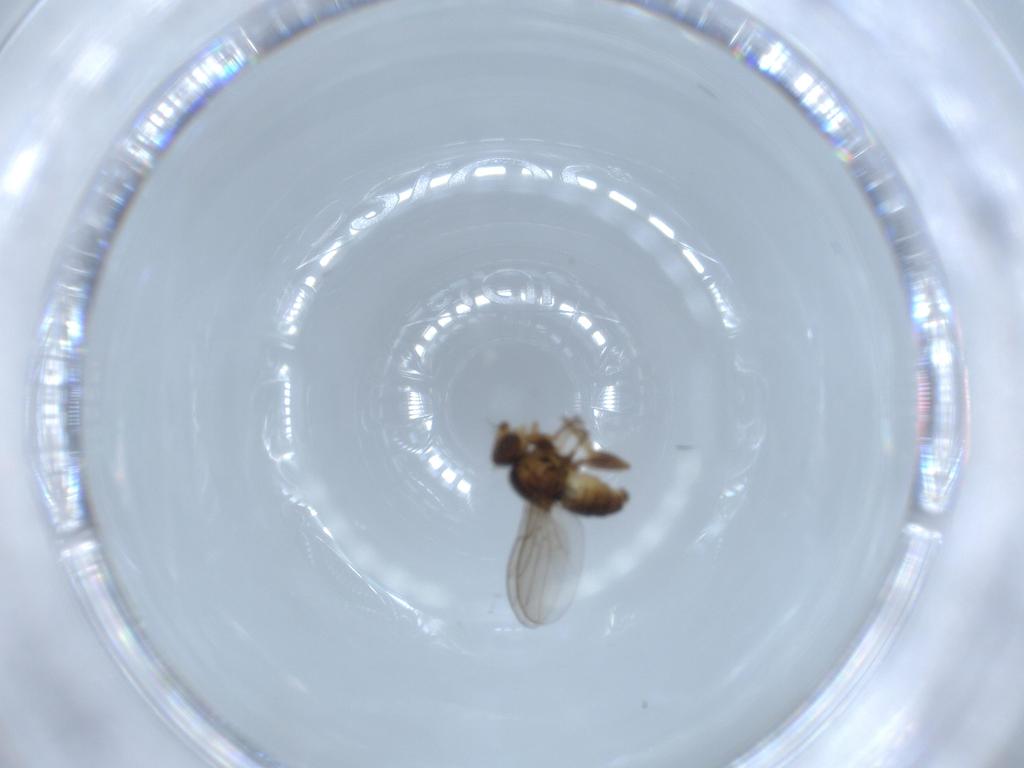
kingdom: Animalia
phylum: Arthropoda
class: Insecta
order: Diptera
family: Chloropidae
